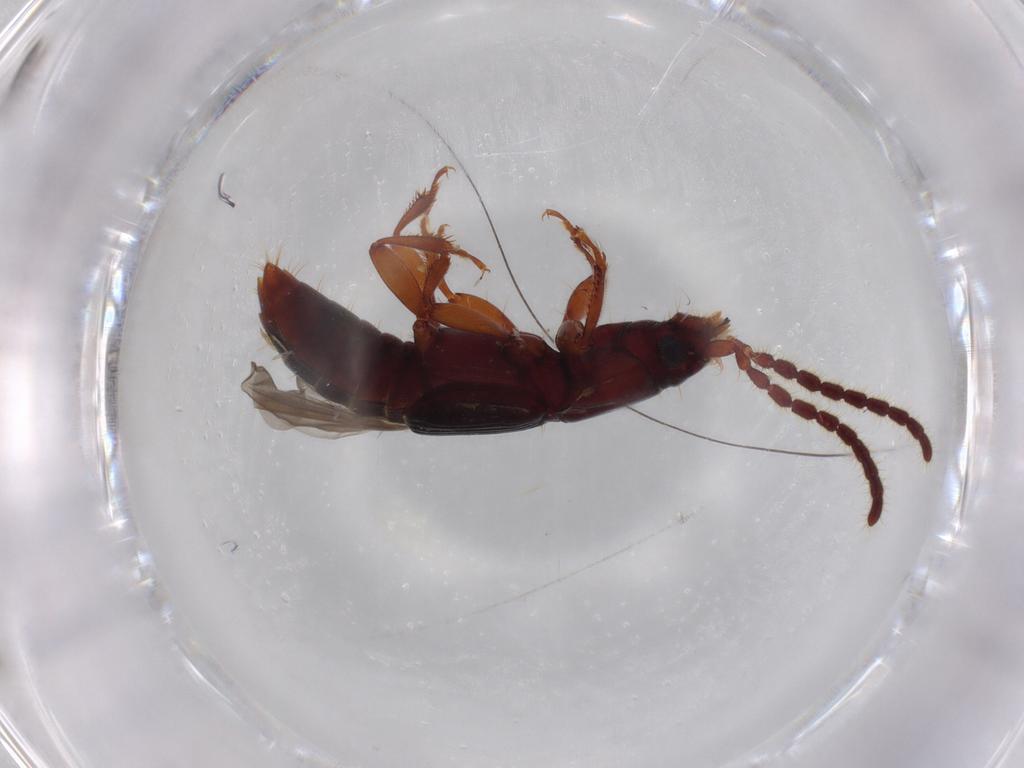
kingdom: Animalia
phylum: Arthropoda
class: Insecta
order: Coleoptera
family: Staphylinidae
